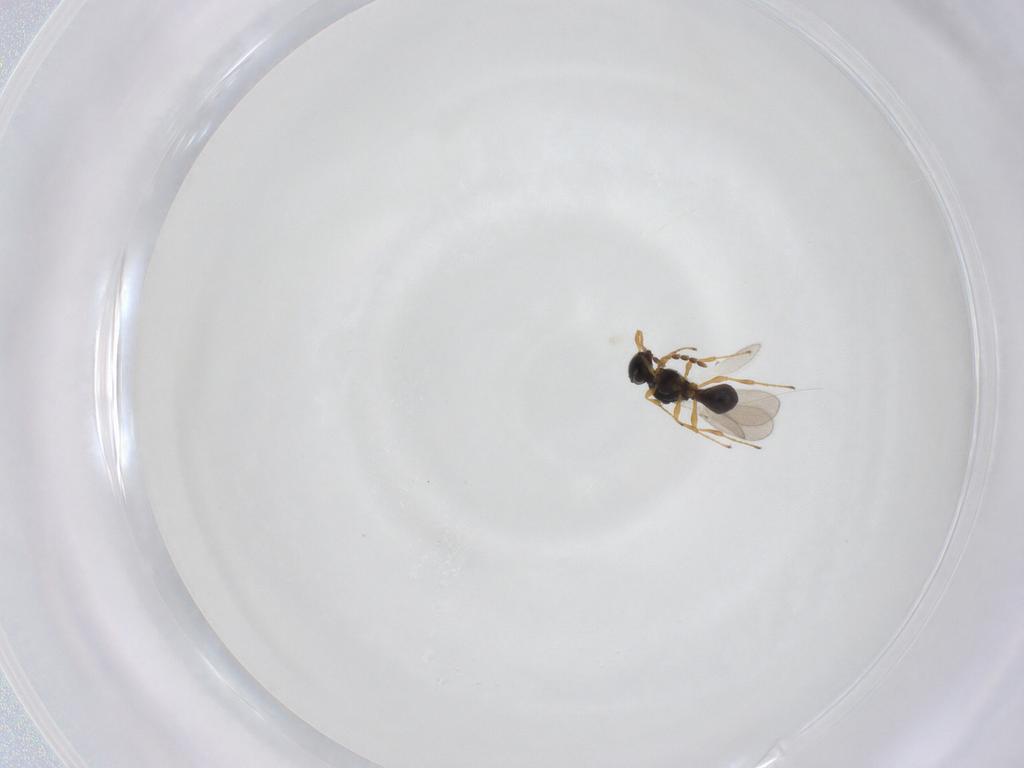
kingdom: Animalia
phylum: Arthropoda
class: Insecta
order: Hymenoptera
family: Platygastridae
